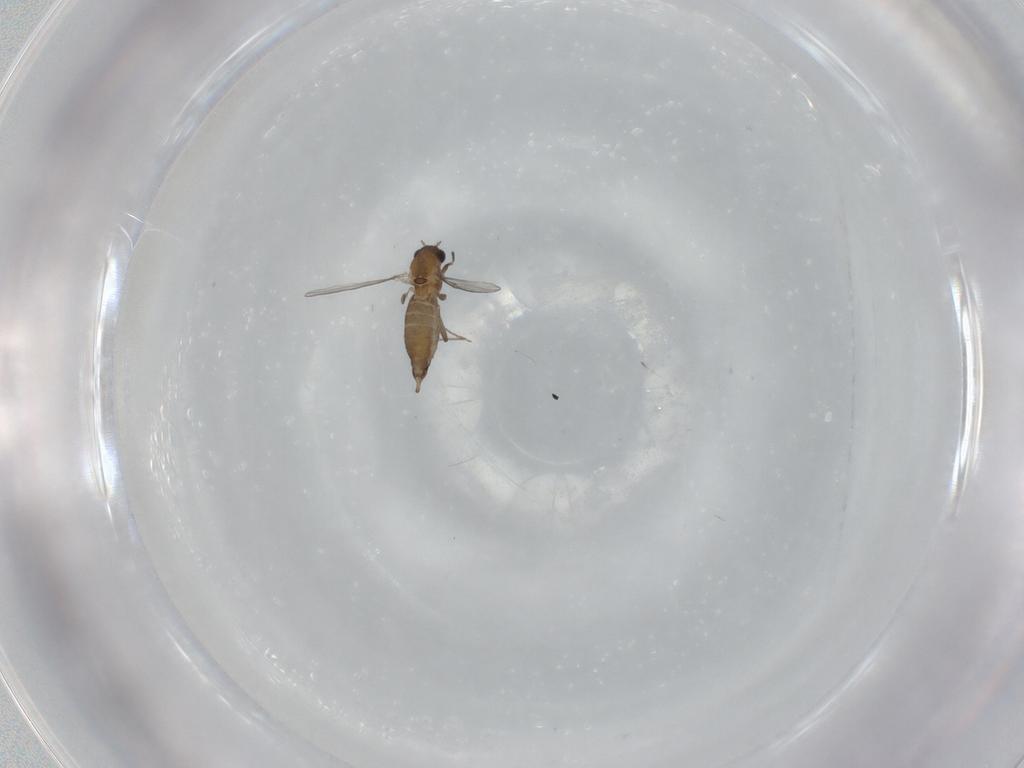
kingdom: Animalia
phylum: Arthropoda
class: Insecta
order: Diptera
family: Chironomidae
